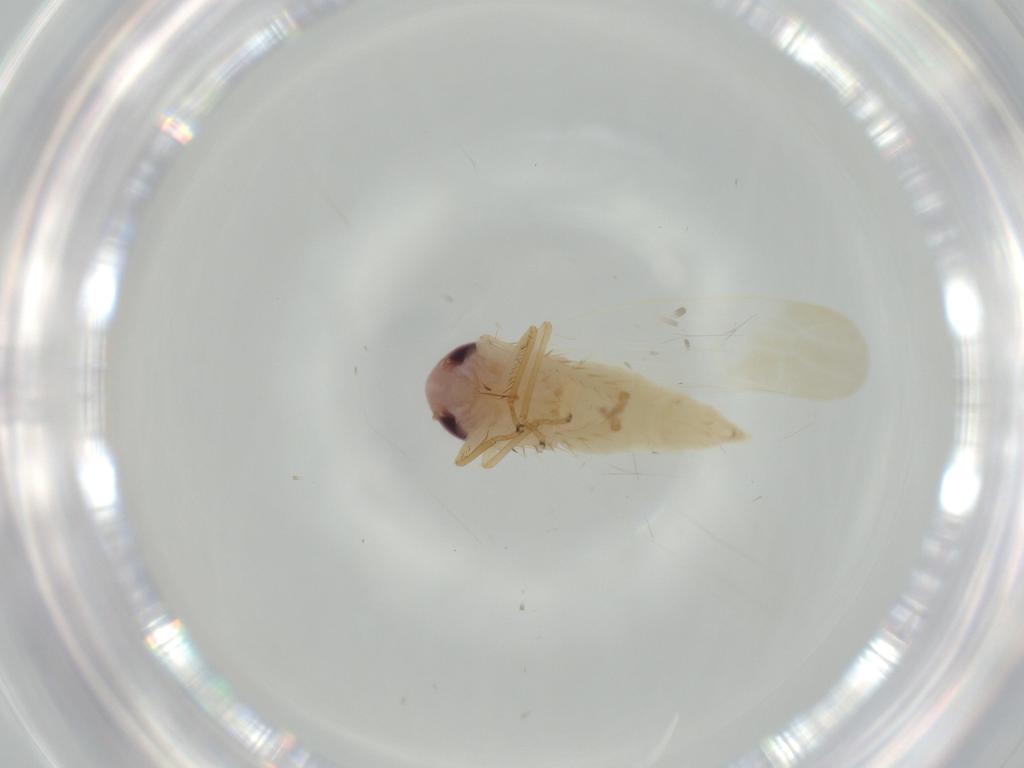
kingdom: Animalia
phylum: Arthropoda
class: Insecta
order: Hemiptera
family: Cicadellidae
